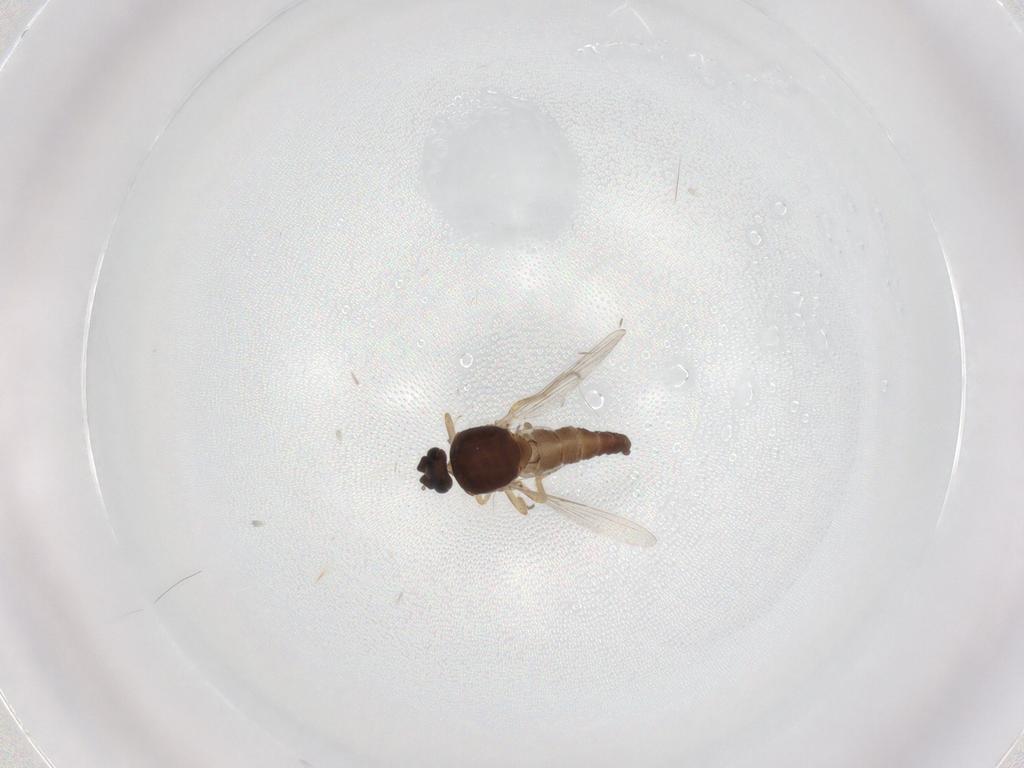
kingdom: Animalia
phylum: Arthropoda
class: Insecta
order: Diptera
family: Ceratopogonidae
